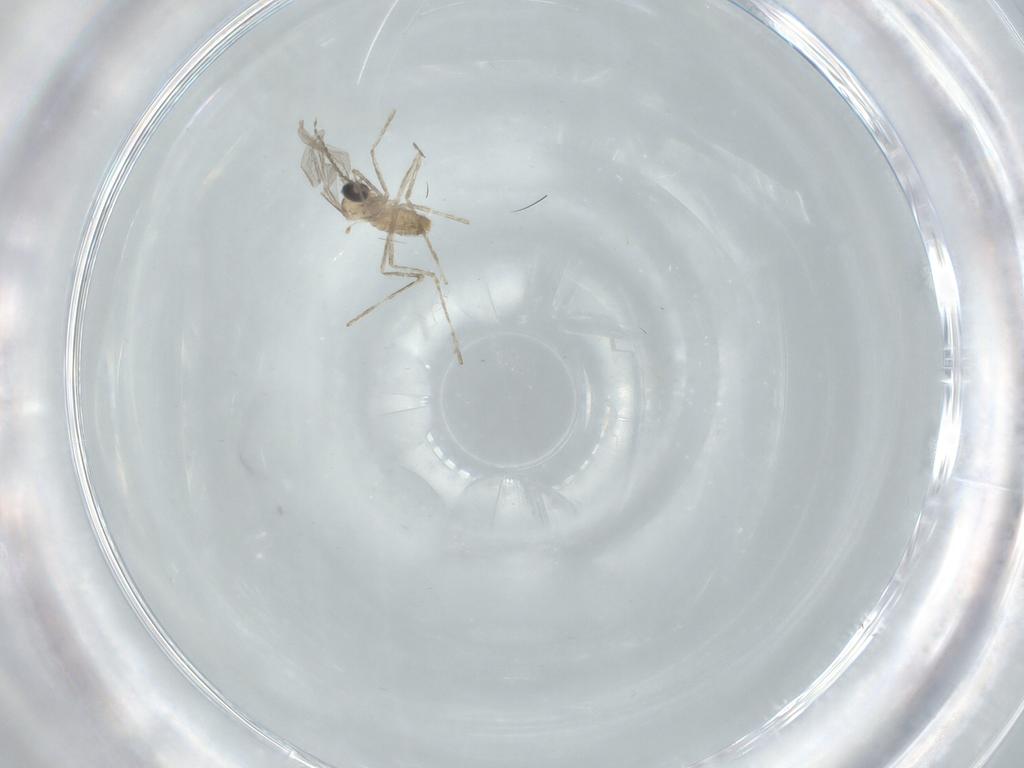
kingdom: Animalia
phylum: Arthropoda
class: Insecta
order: Diptera
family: Cecidomyiidae
